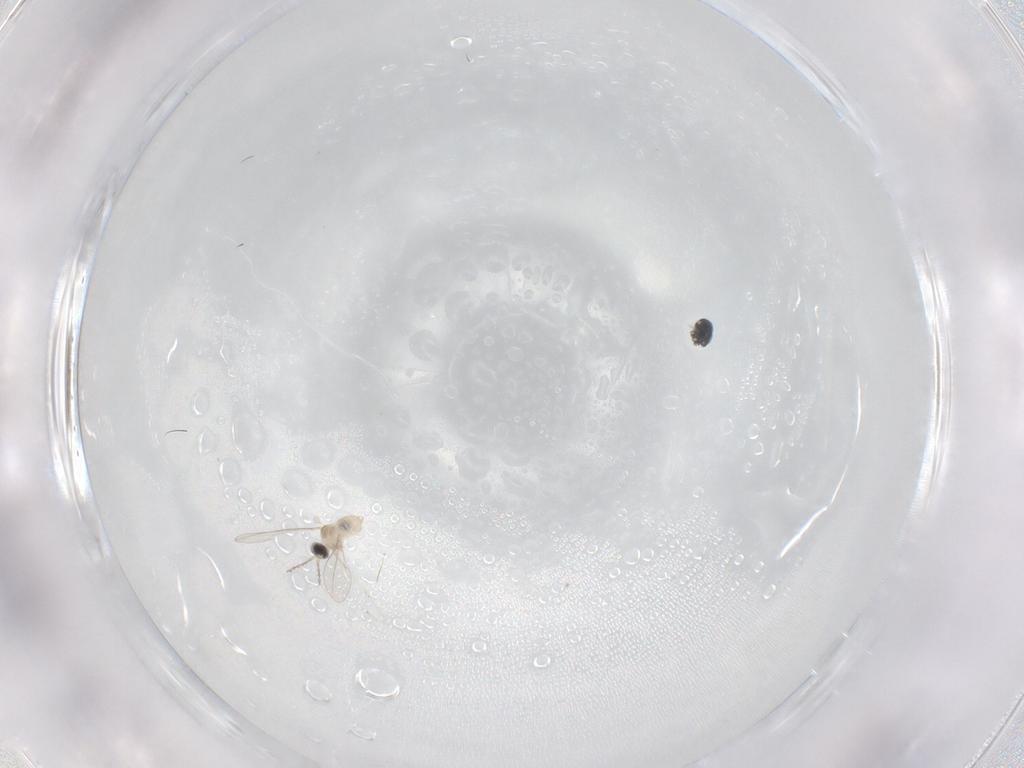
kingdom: Animalia
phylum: Arthropoda
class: Insecta
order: Diptera
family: Cecidomyiidae
